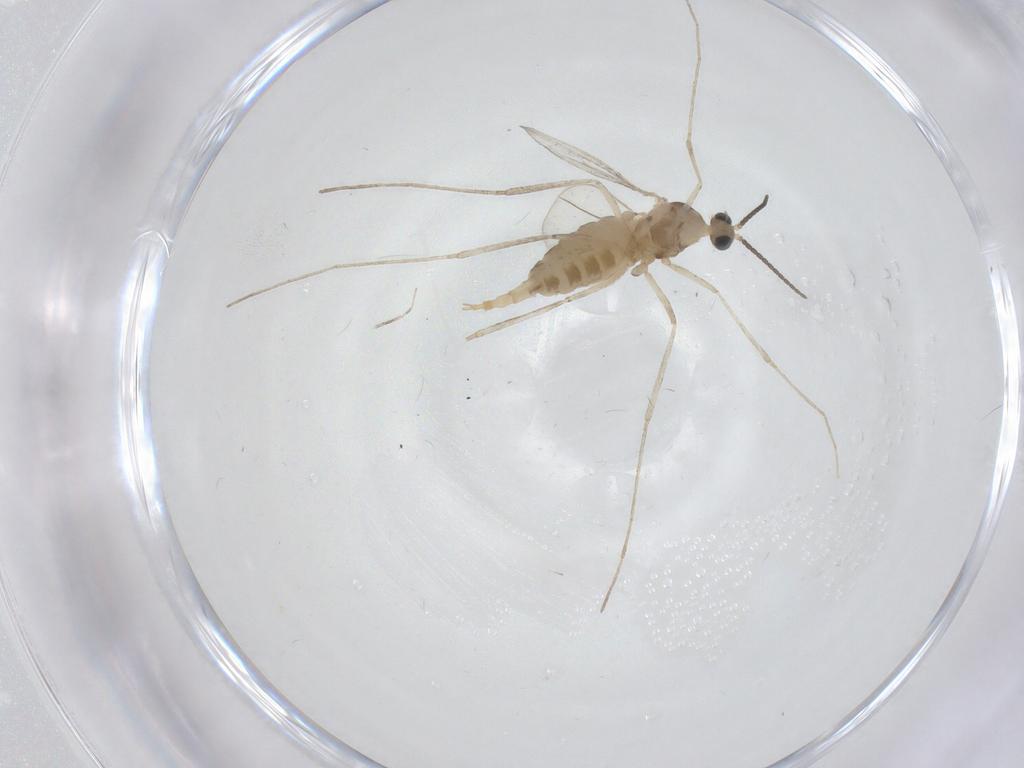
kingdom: Animalia
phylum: Arthropoda
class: Insecta
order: Diptera
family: Cecidomyiidae
